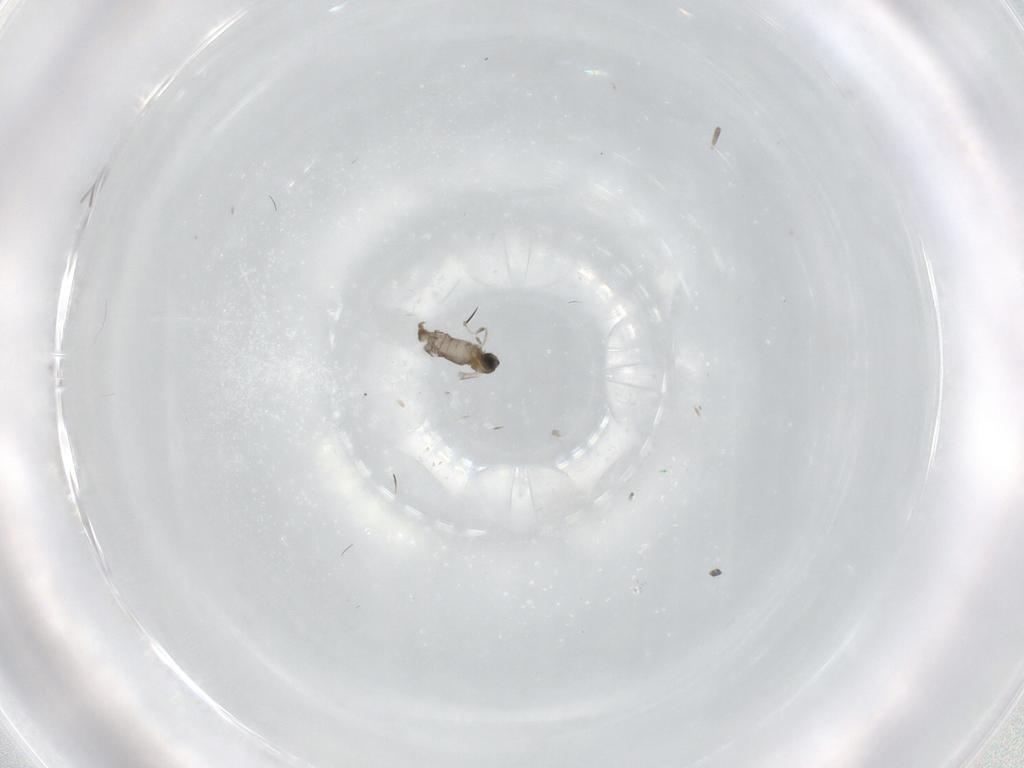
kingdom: Animalia
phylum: Arthropoda
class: Insecta
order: Diptera
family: Cecidomyiidae
